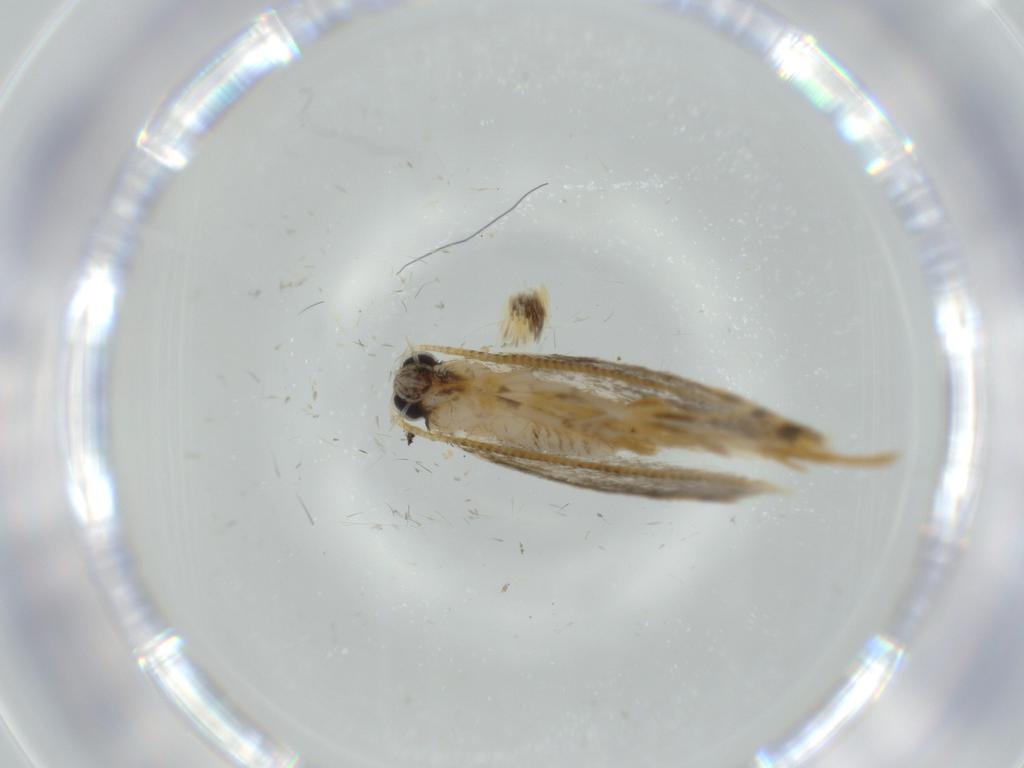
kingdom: Animalia
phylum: Arthropoda
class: Insecta
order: Lepidoptera
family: Tineidae
